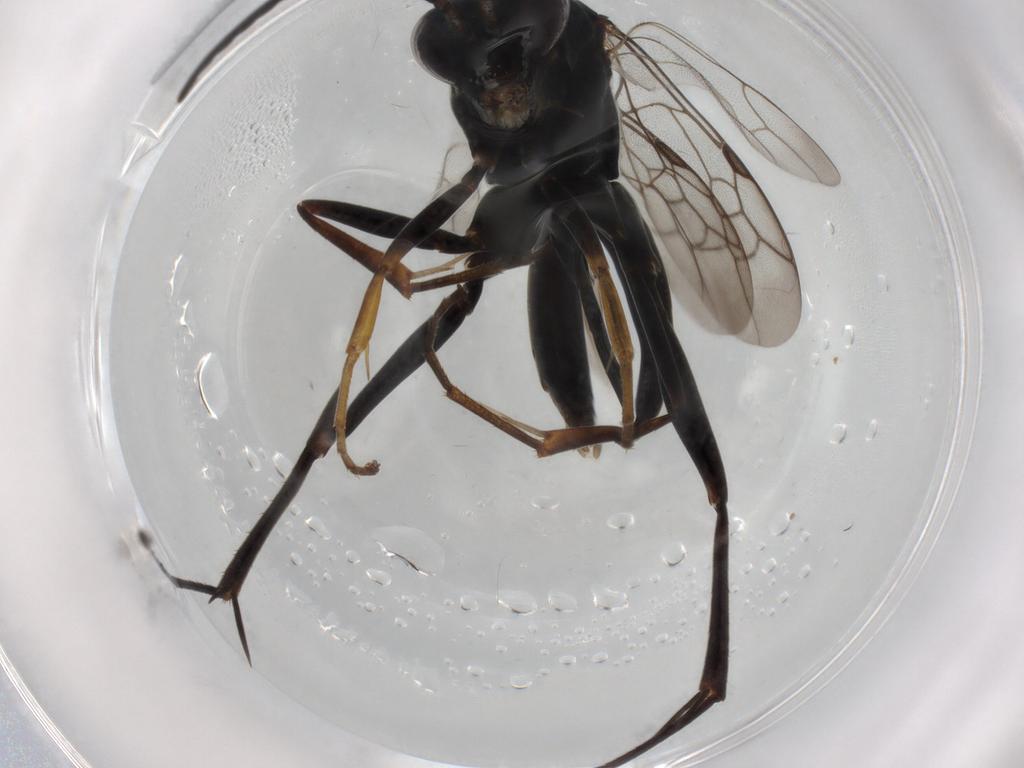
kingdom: Animalia
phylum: Arthropoda
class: Insecta
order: Hymenoptera
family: Pompilidae
